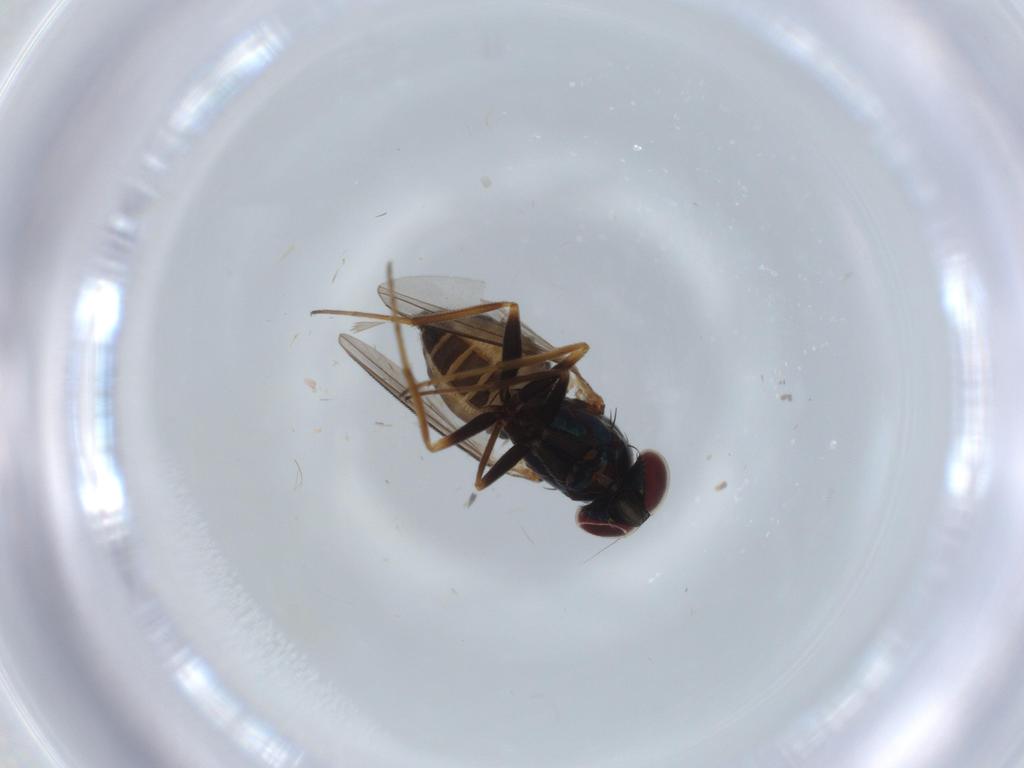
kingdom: Animalia
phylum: Arthropoda
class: Insecta
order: Diptera
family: Dolichopodidae
